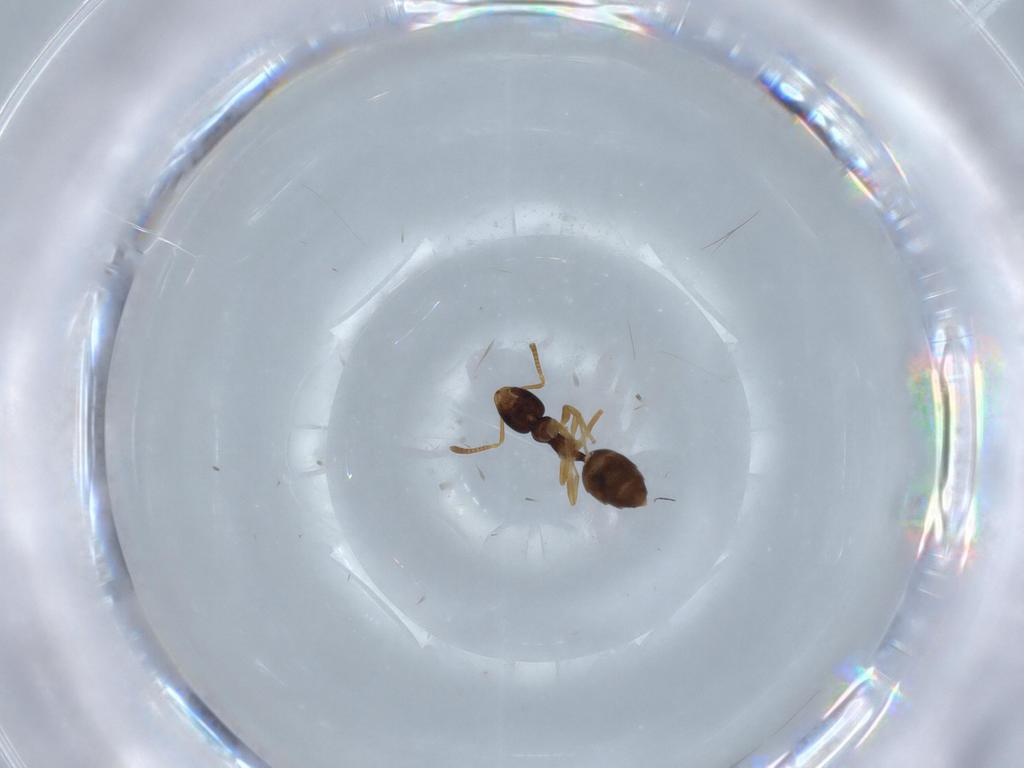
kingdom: Animalia
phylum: Arthropoda
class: Insecta
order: Hymenoptera
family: Formicidae
